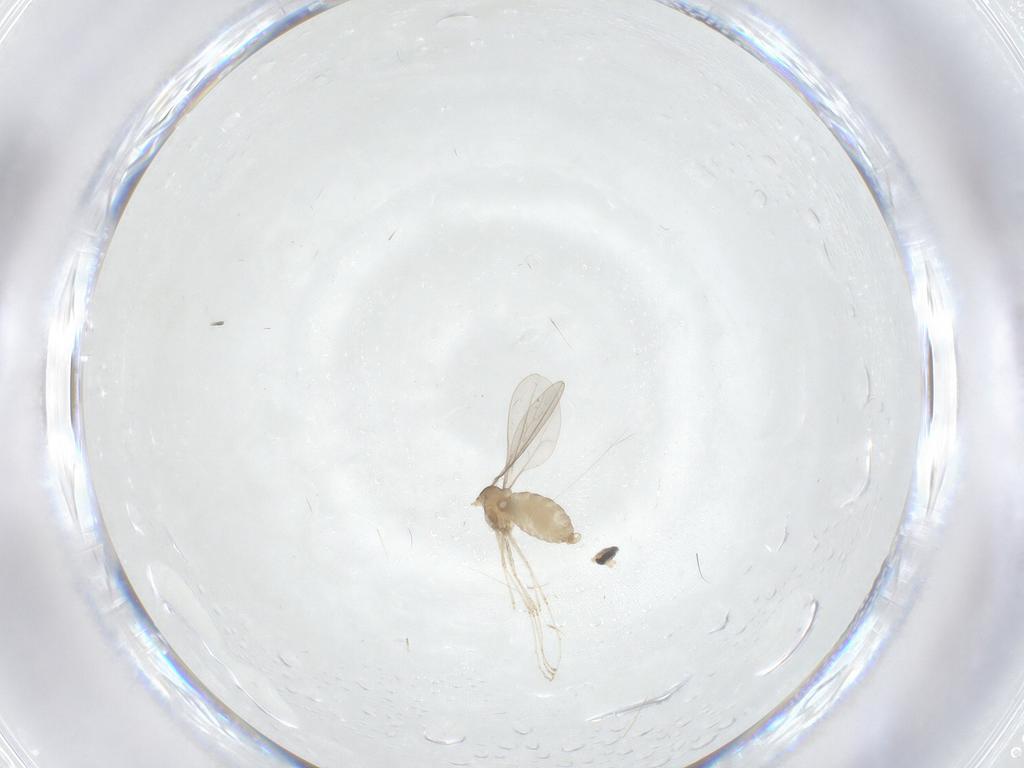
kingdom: Animalia
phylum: Arthropoda
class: Insecta
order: Diptera
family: Cecidomyiidae
